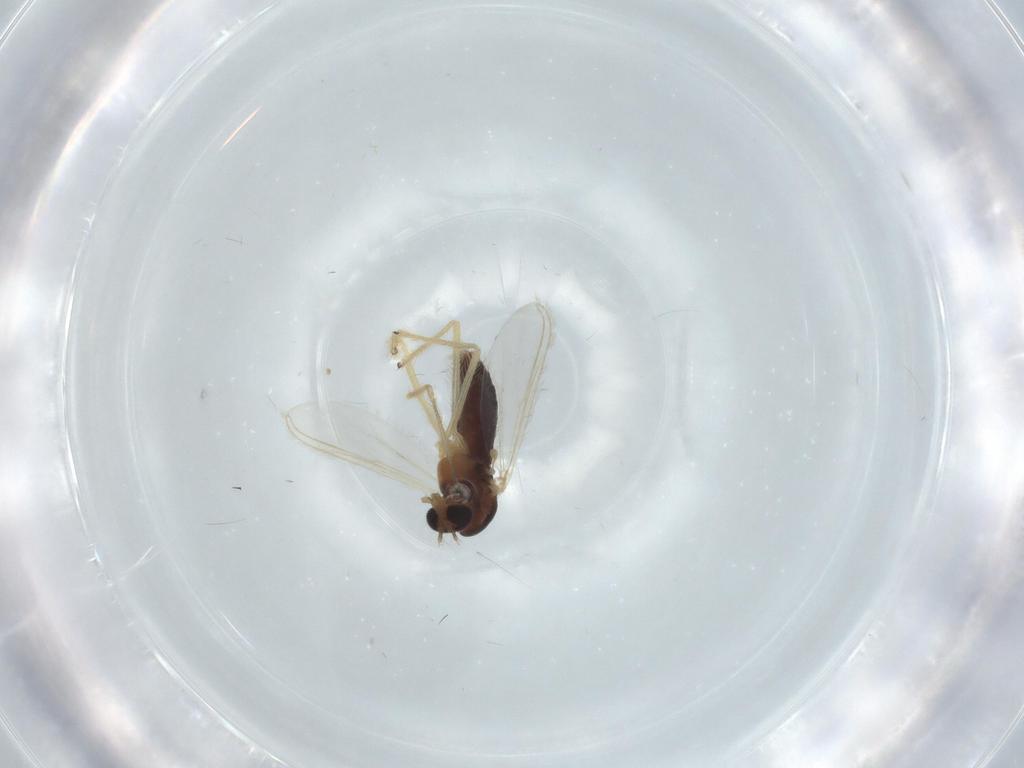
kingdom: Animalia
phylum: Arthropoda
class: Insecta
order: Diptera
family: Chironomidae
